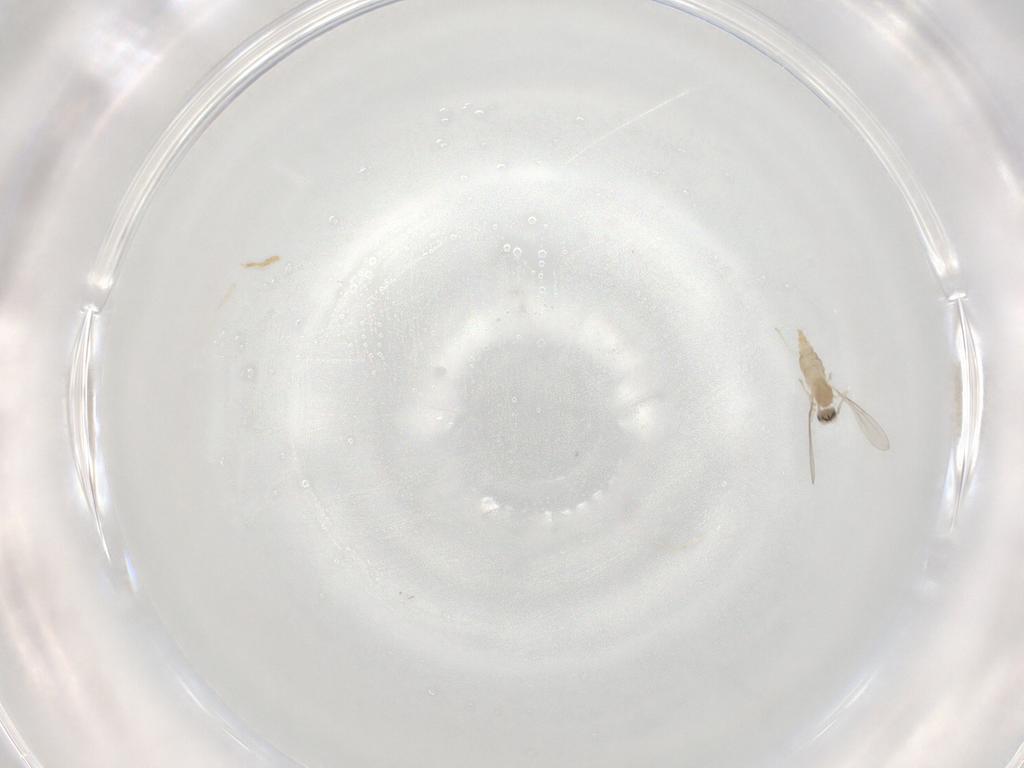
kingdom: Animalia
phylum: Arthropoda
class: Insecta
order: Diptera
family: Cecidomyiidae
